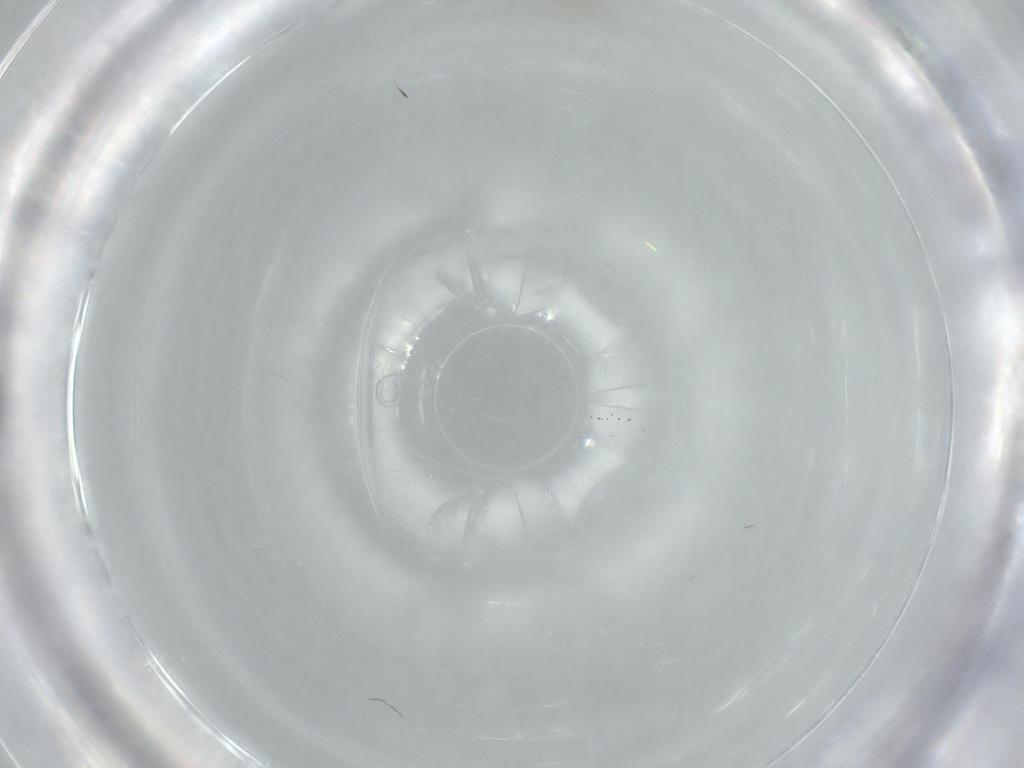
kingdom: Animalia
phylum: Arthropoda
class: Insecta
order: Diptera
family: Cecidomyiidae
